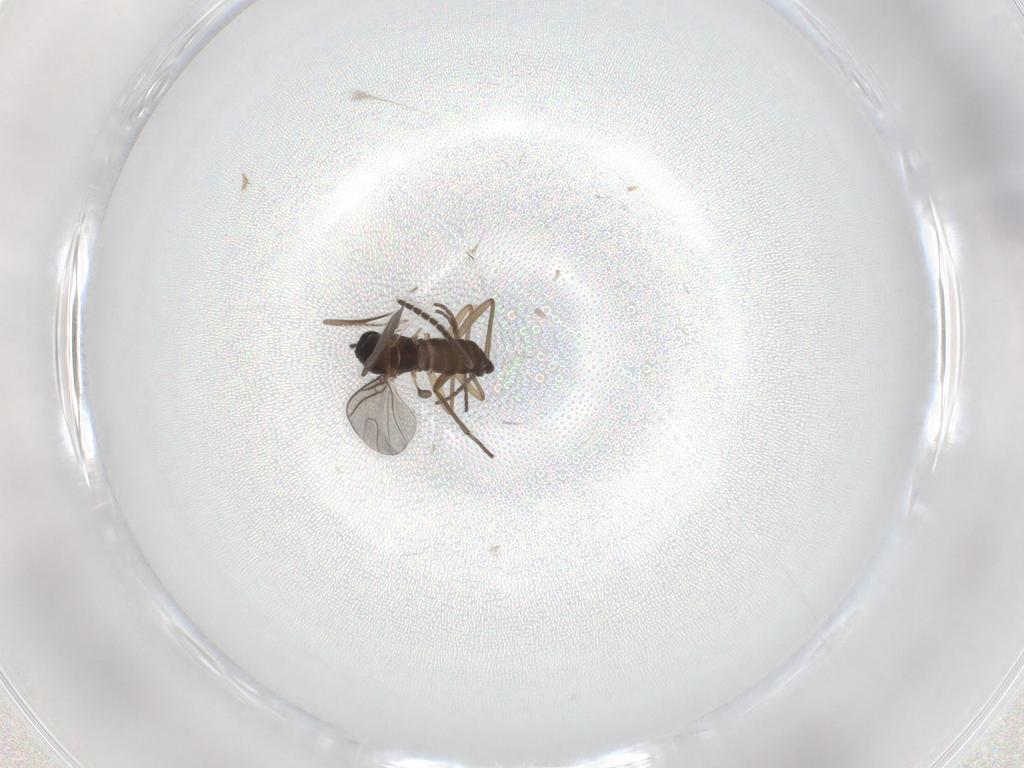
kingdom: Animalia
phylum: Arthropoda
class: Insecta
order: Diptera
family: Sciaridae
